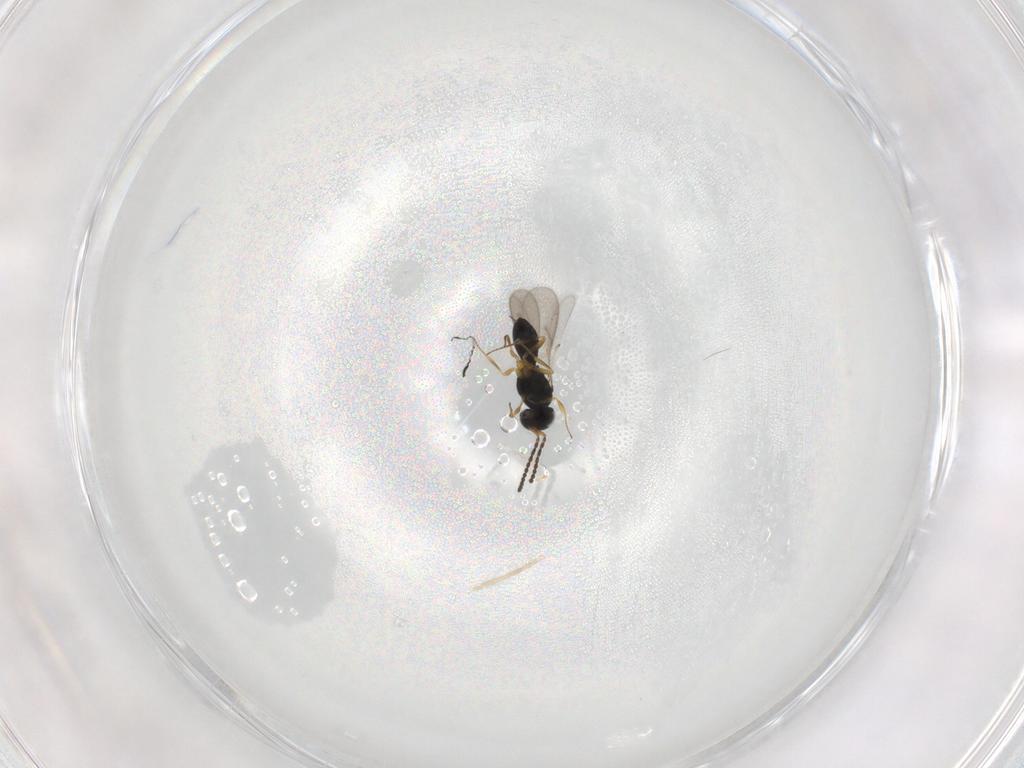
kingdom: Animalia
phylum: Arthropoda
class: Insecta
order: Hymenoptera
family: Scelionidae
